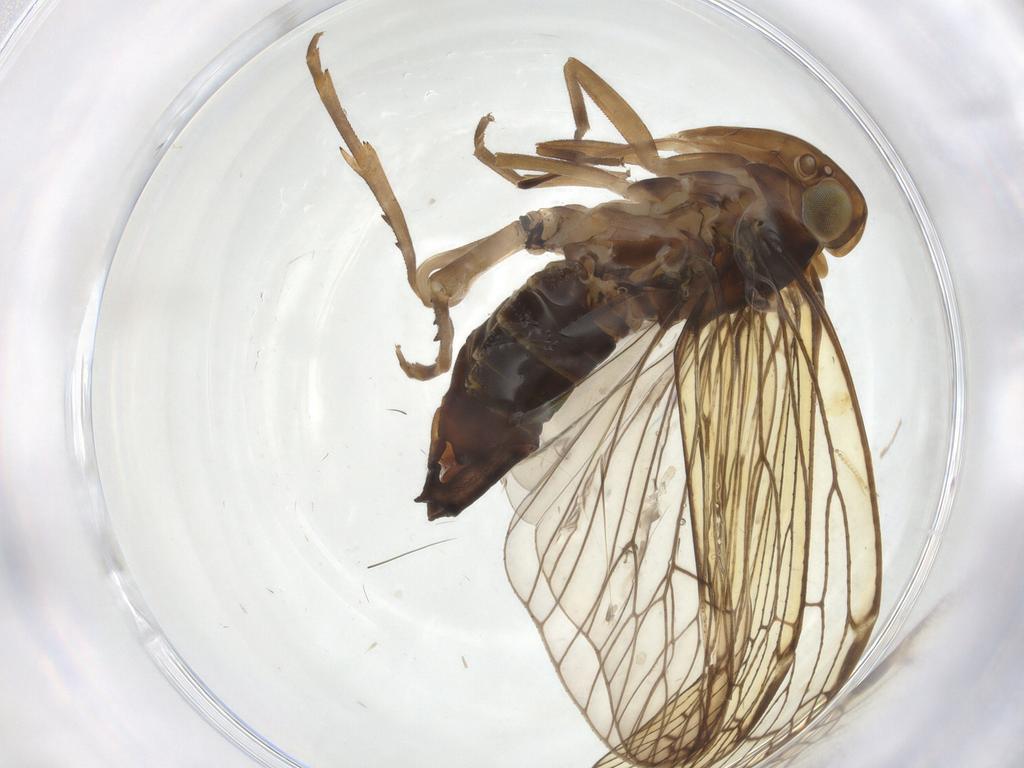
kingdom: Animalia
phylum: Arthropoda
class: Insecta
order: Hemiptera
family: Cixiidae
